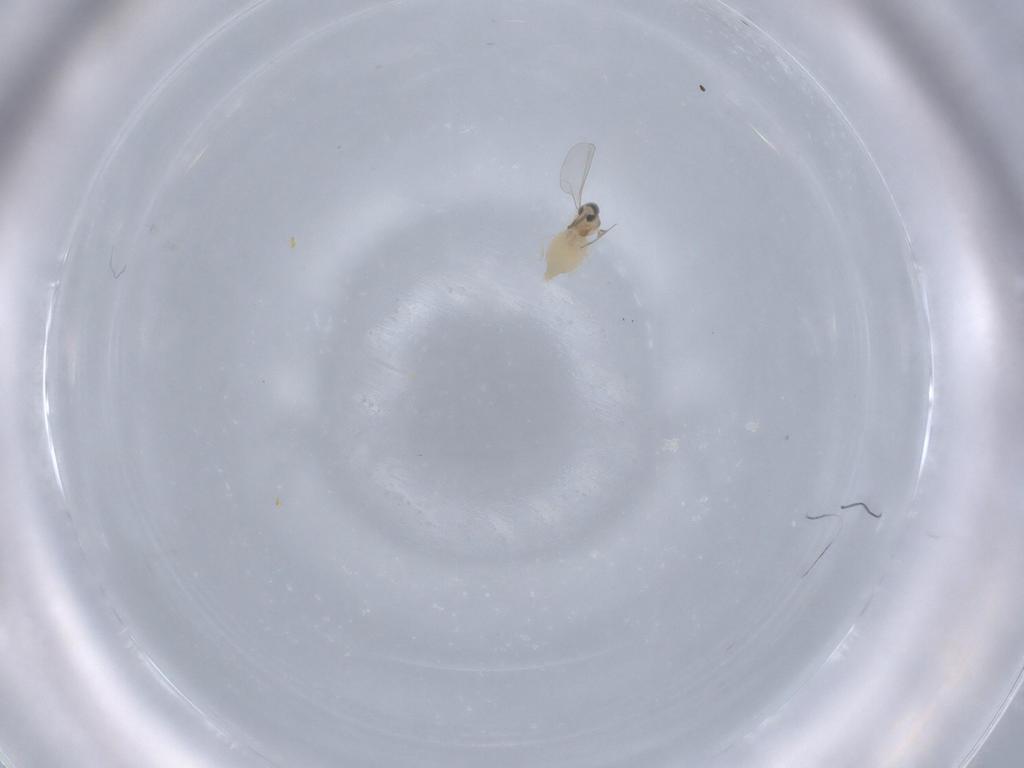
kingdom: Animalia
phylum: Arthropoda
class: Insecta
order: Diptera
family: Cecidomyiidae
